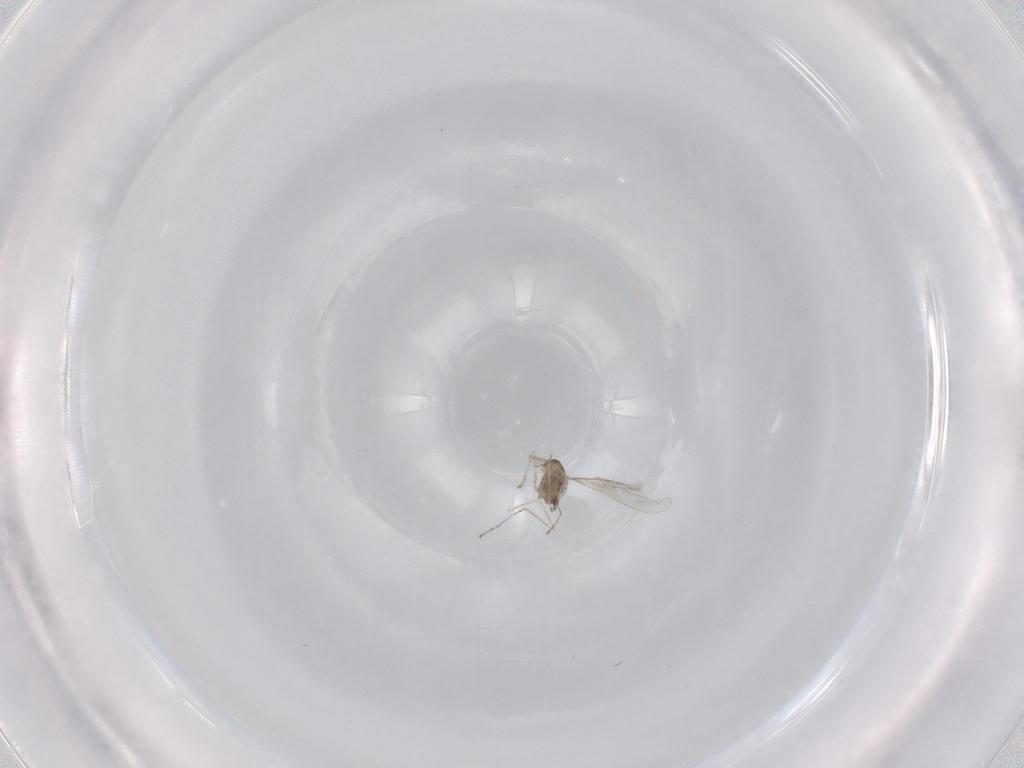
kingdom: Animalia
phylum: Arthropoda
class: Insecta
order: Diptera
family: Cecidomyiidae
